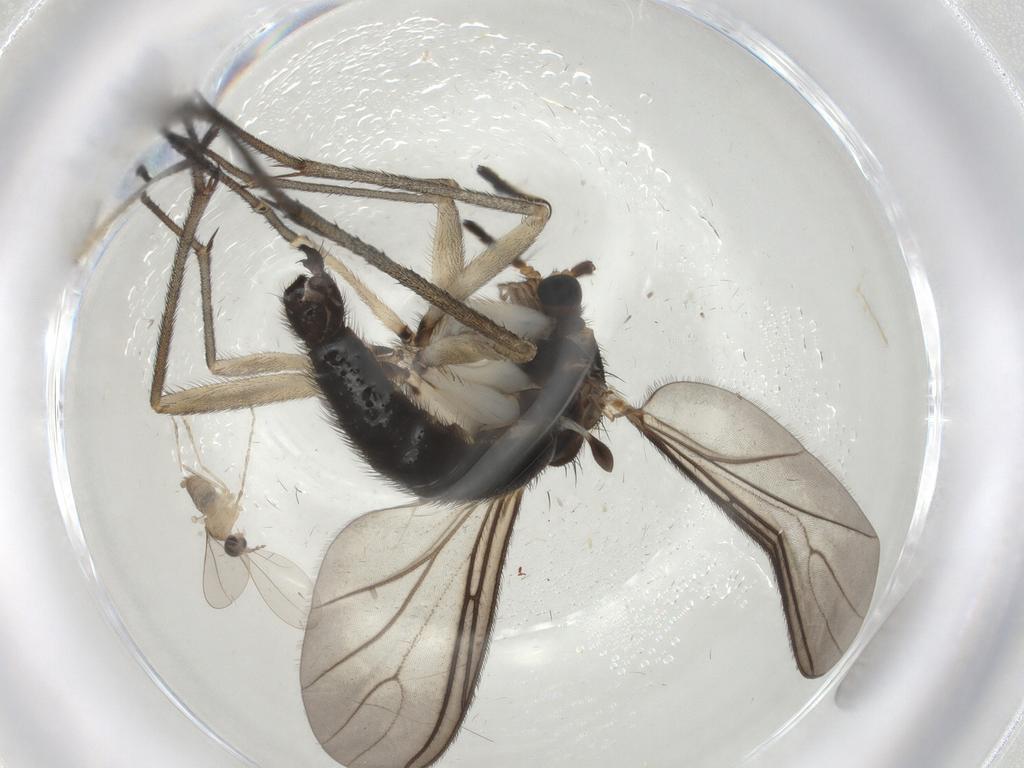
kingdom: Animalia
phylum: Arthropoda
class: Insecta
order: Diptera
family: Sciaridae
